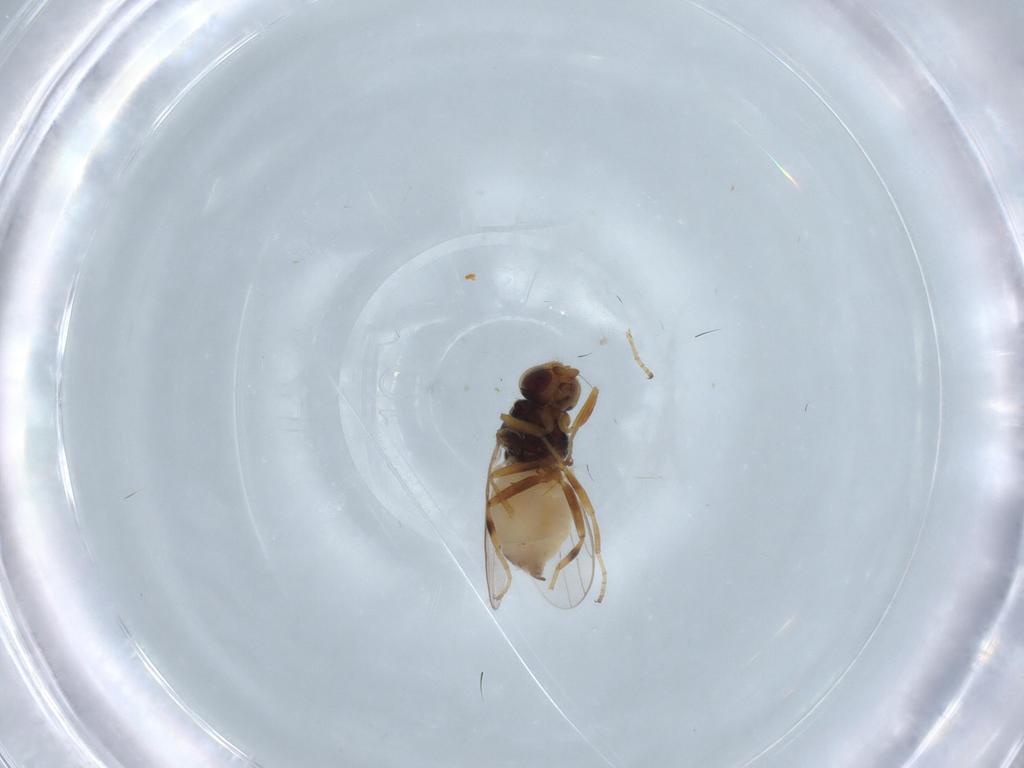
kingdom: Animalia
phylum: Arthropoda
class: Insecta
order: Diptera
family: Chloropidae
